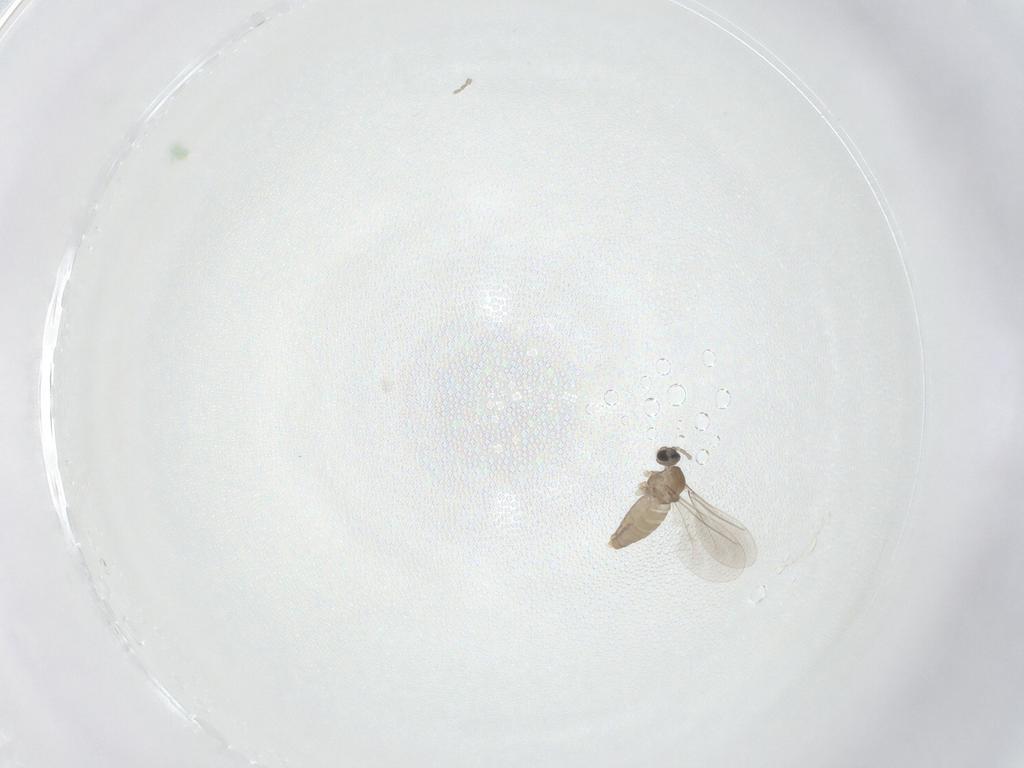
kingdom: Animalia
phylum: Arthropoda
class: Insecta
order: Diptera
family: Cecidomyiidae
